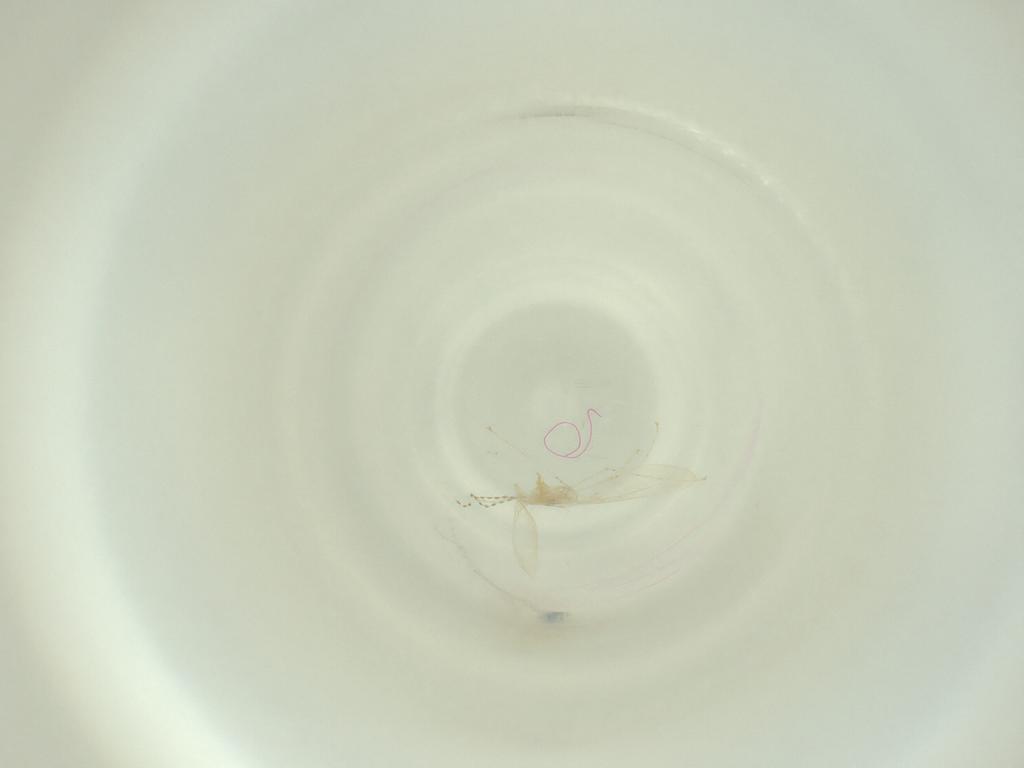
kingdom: Animalia
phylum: Arthropoda
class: Insecta
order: Diptera
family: Cecidomyiidae
